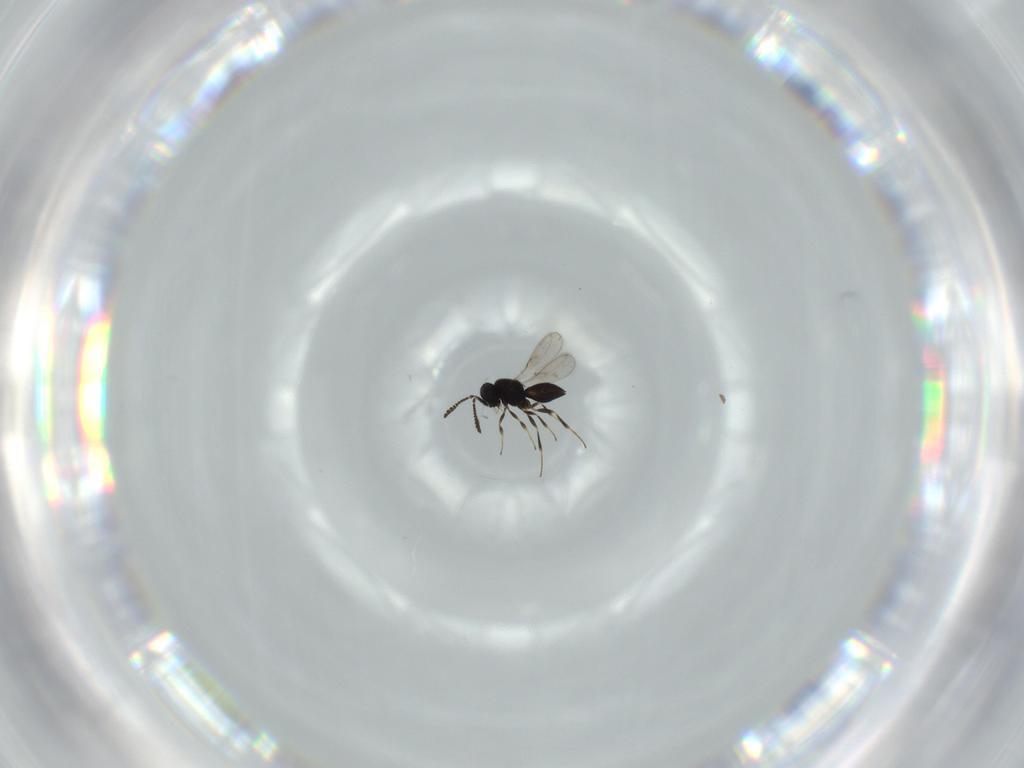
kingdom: Animalia
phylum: Arthropoda
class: Insecta
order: Hymenoptera
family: Scelionidae
